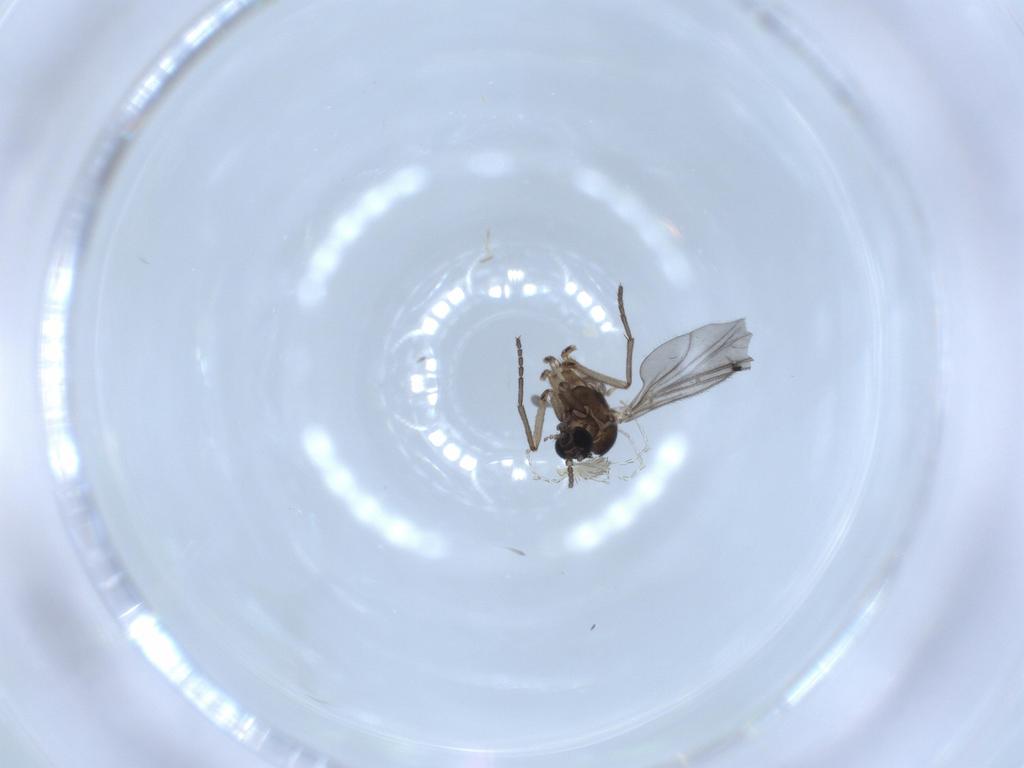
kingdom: Animalia
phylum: Arthropoda
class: Insecta
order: Diptera
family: Sciaridae
